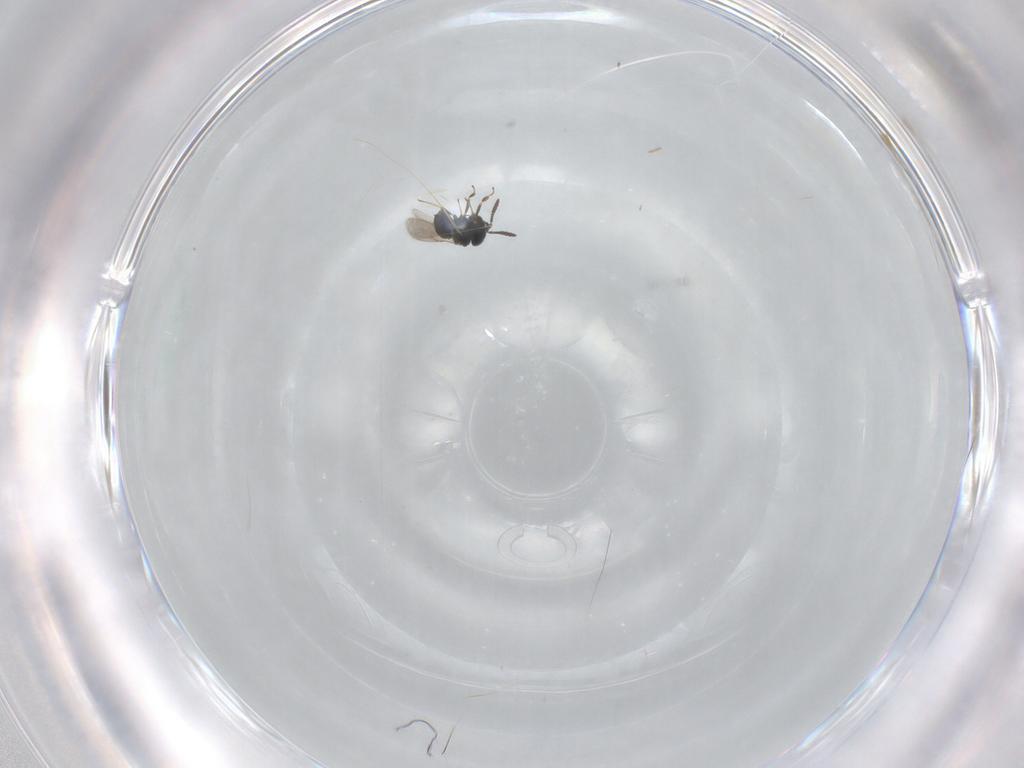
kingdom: Animalia
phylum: Arthropoda
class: Insecta
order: Hymenoptera
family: Scelionidae
